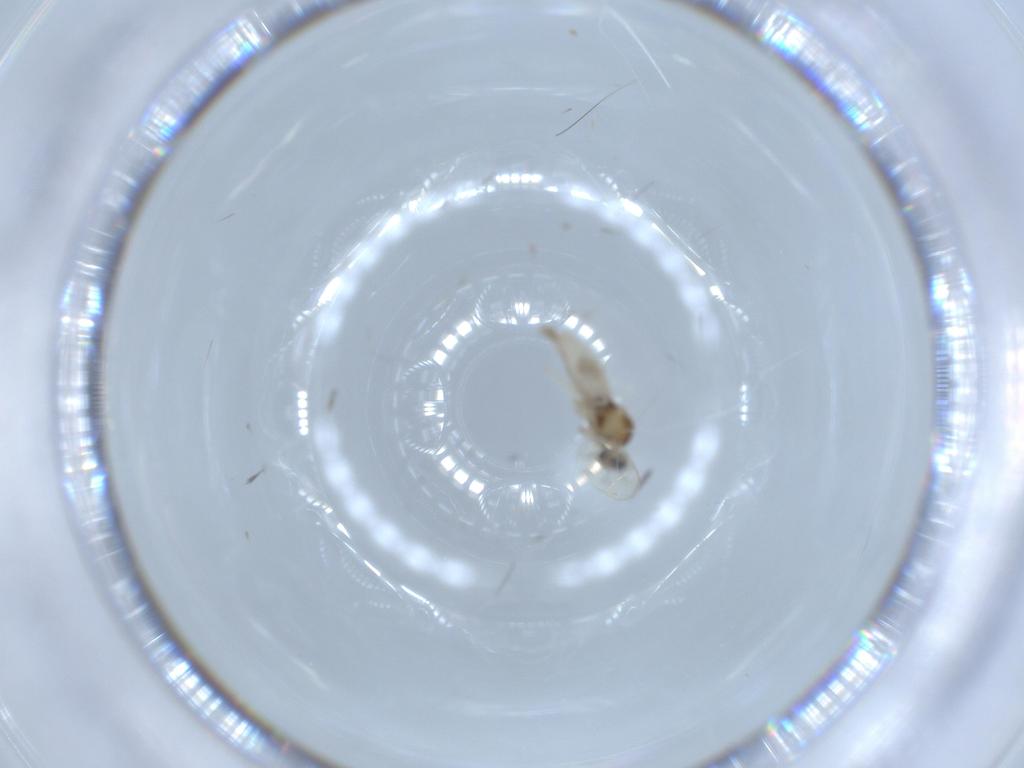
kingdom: Animalia
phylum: Arthropoda
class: Insecta
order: Diptera
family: Cecidomyiidae
